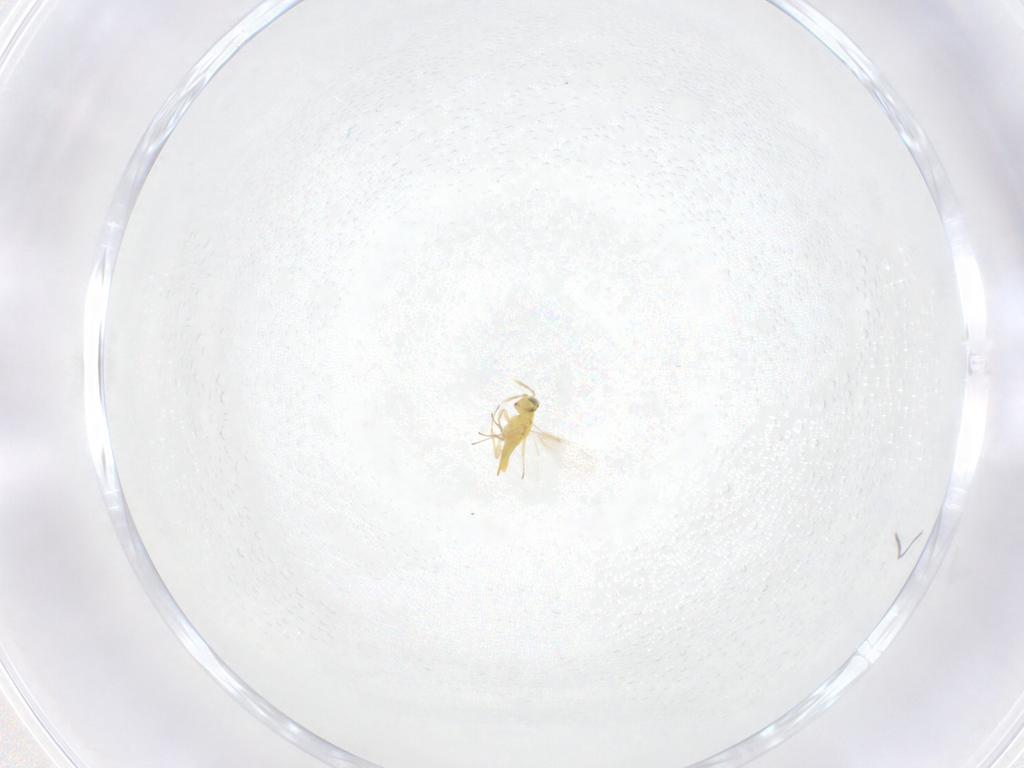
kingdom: Animalia
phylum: Arthropoda
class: Insecta
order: Hymenoptera
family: Aphelinidae
